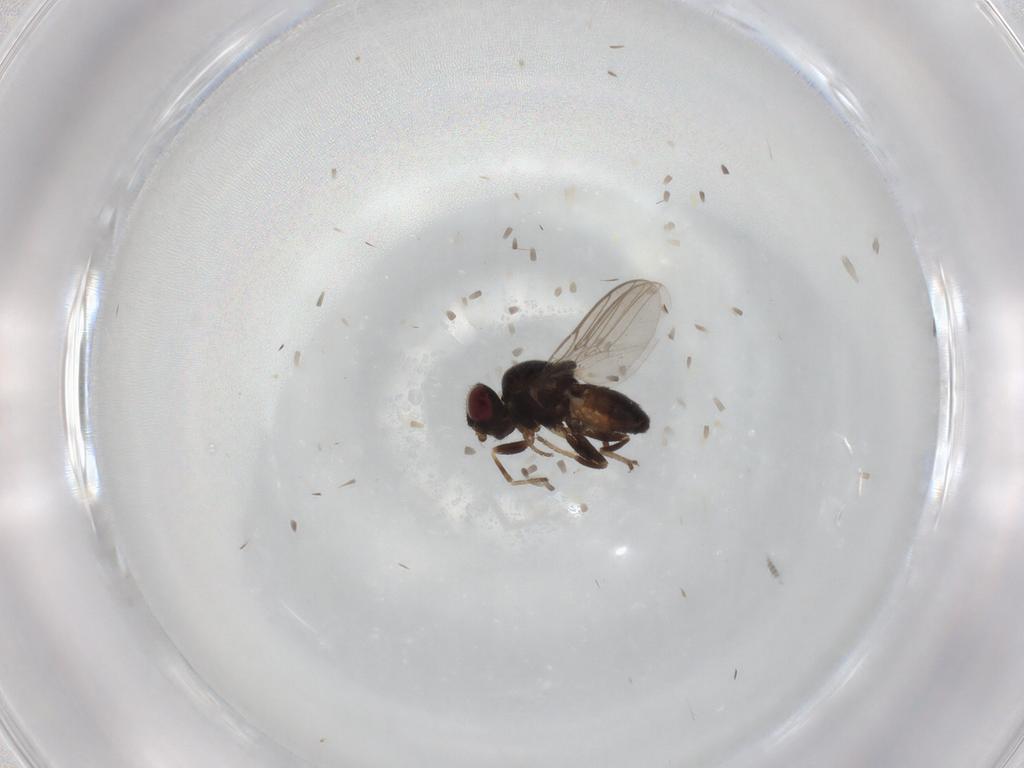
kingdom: Animalia
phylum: Arthropoda
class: Insecta
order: Diptera
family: Chloropidae
